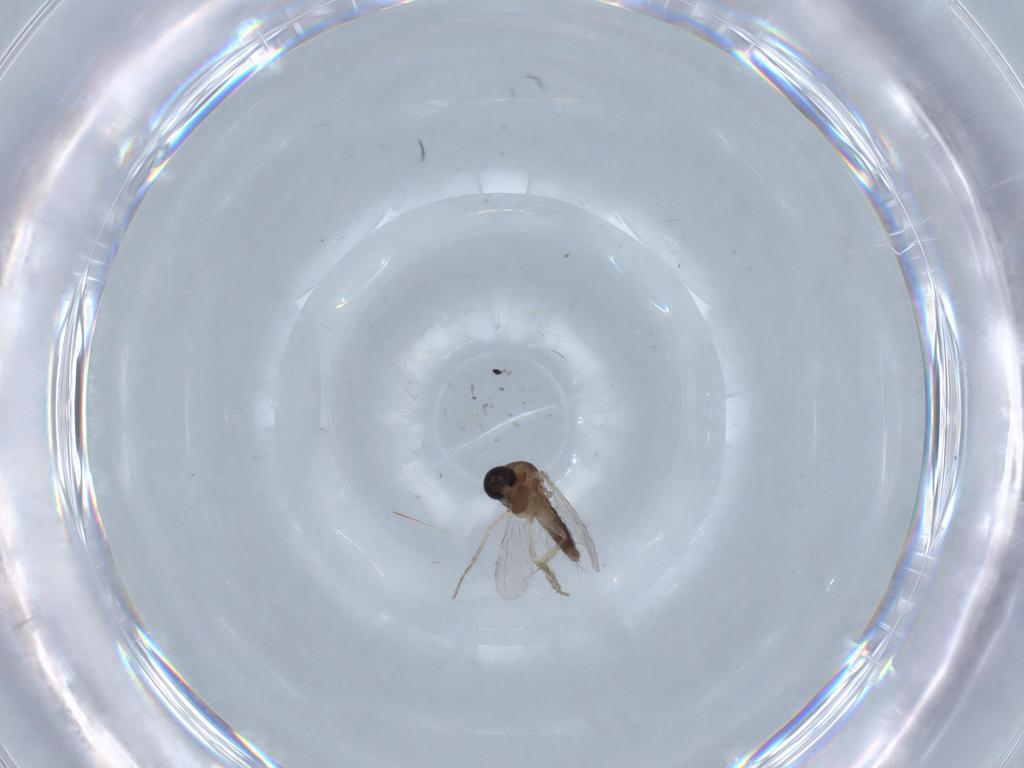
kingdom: Animalia
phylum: Arthropoda
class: Insecta
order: Diptera
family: Ceratopogonidae
